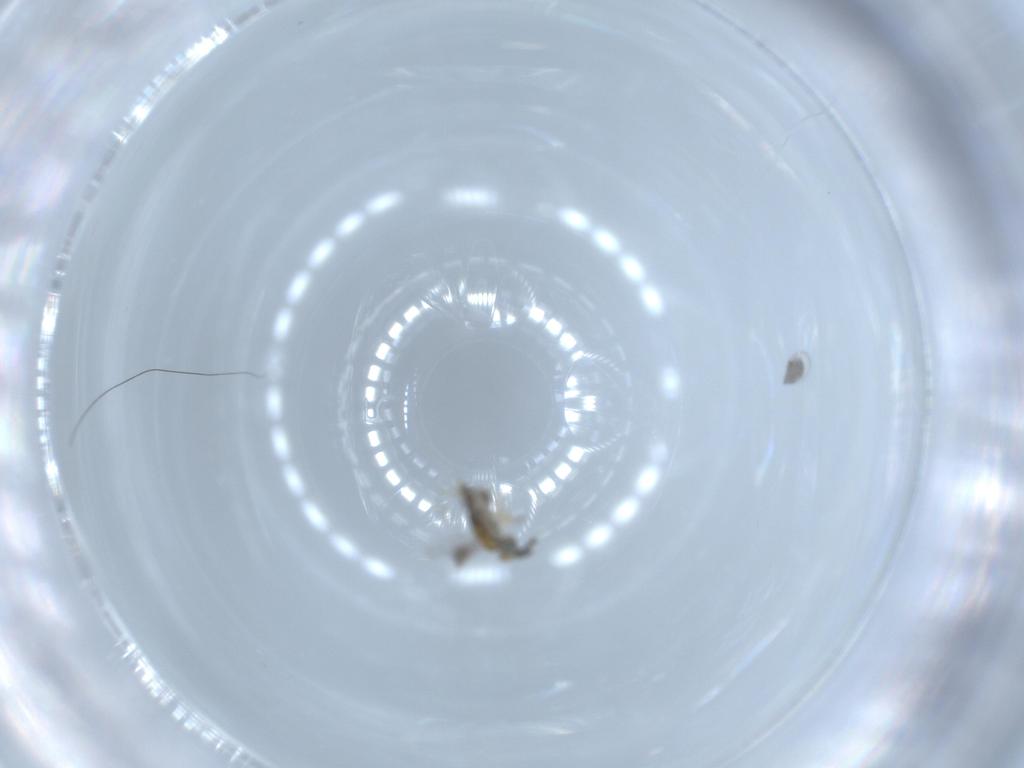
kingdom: Animalia
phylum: Arthropoda
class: Insecta
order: Hymenoptera
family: Aphelinidae
